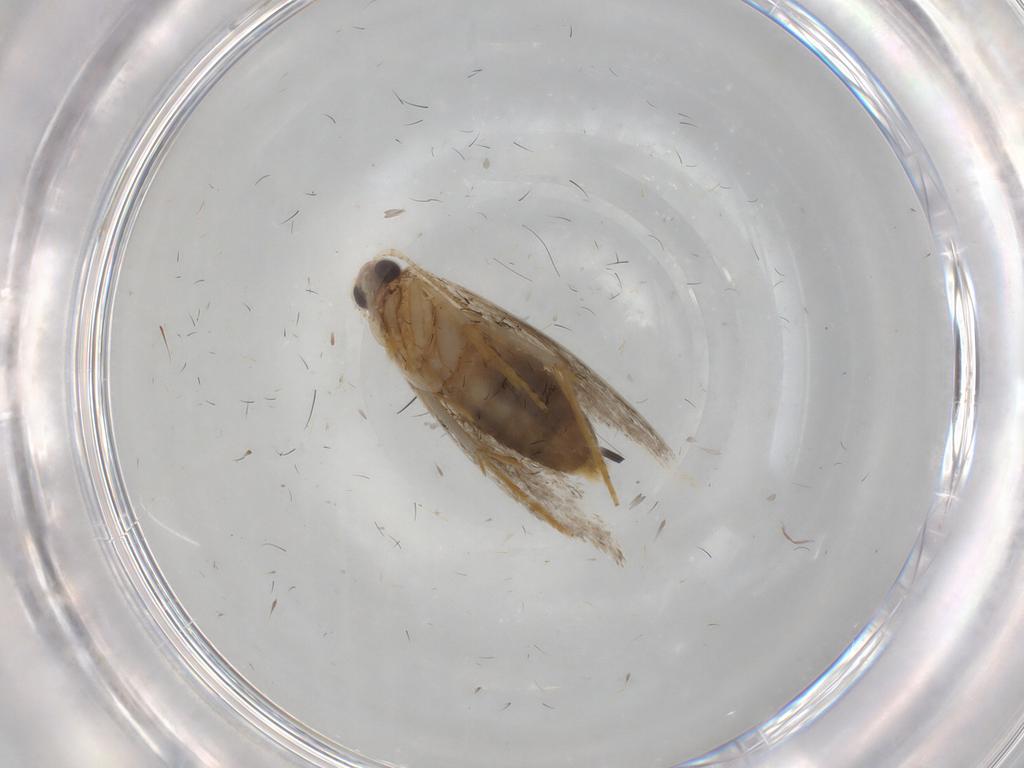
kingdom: Animalia
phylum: Arthropoda
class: Insecta
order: Lepidoptera
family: Tineidae
